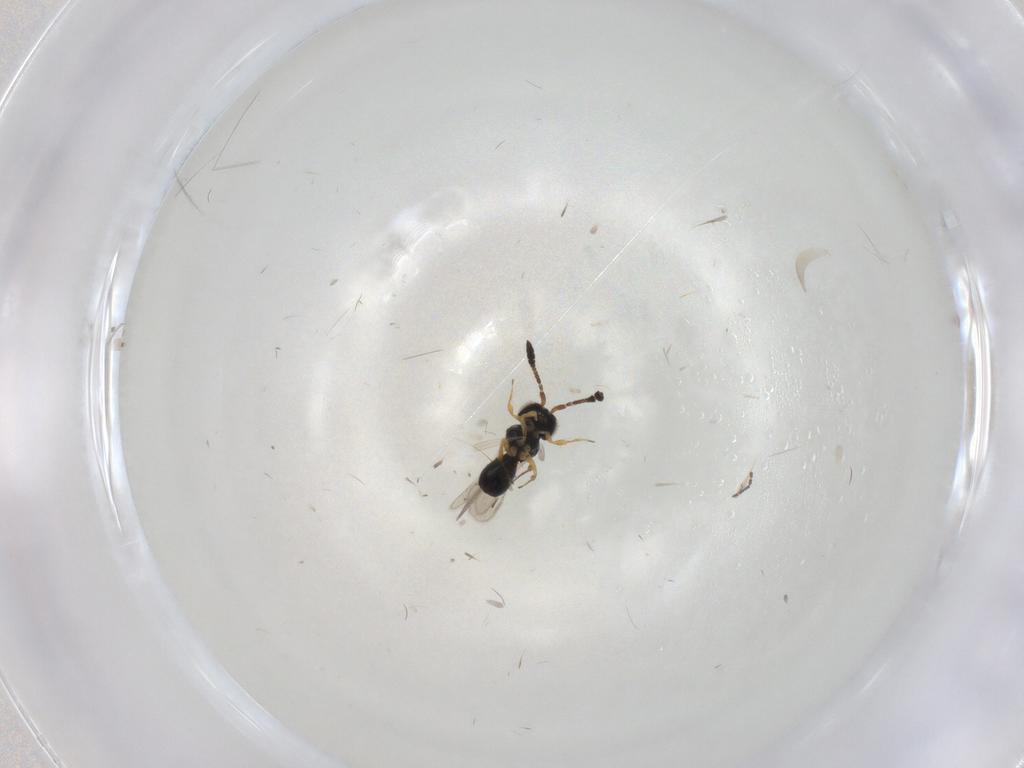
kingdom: Animalia
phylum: Arthropoda
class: Insecta
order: Hymenoptera
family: Scelionidae
